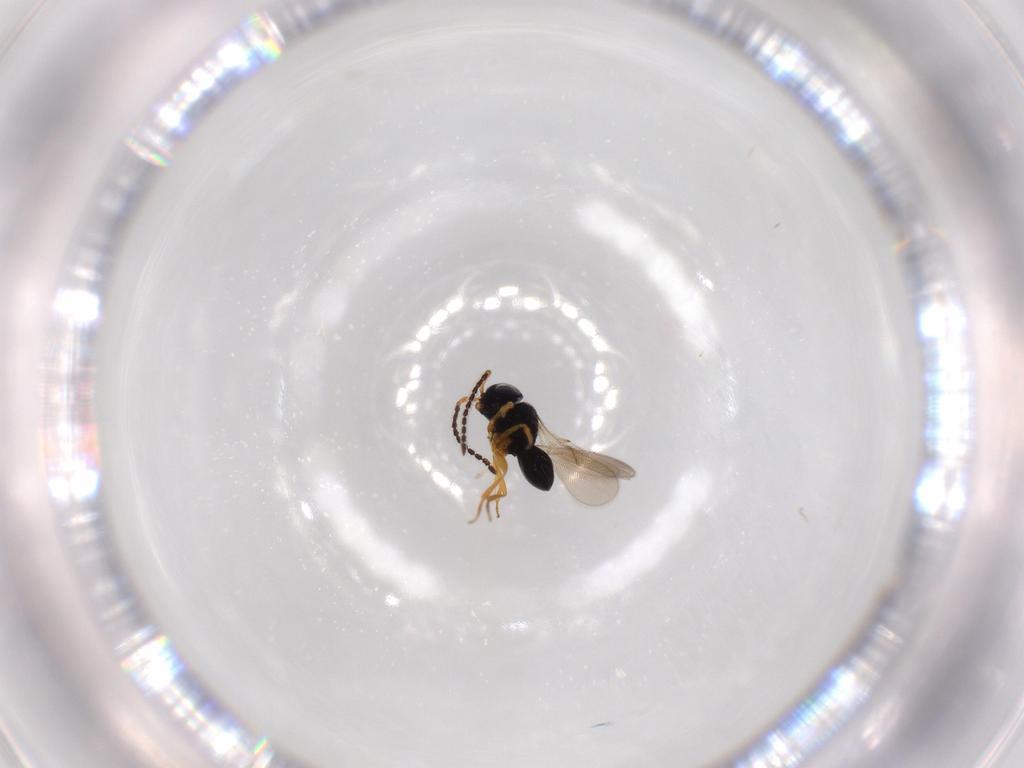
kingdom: Animalia
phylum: Arthropoda
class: Insecta
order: Hymenoptera
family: Scelionidae
